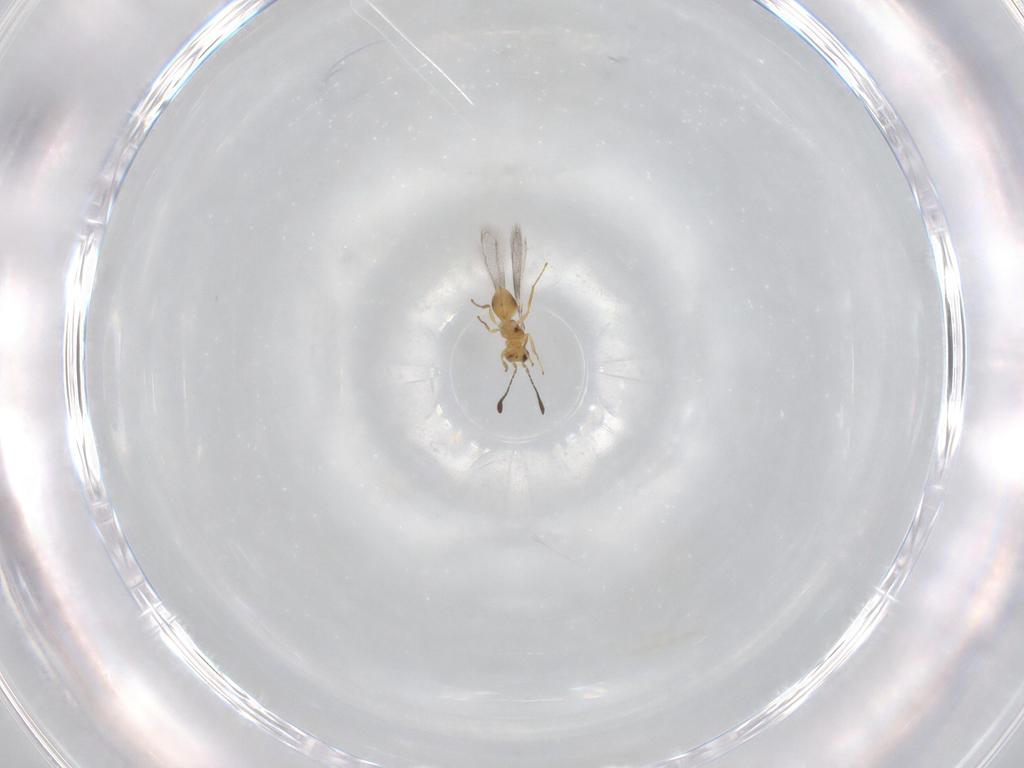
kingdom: Animalia
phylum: Arthropoda
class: Insecta
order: Hymenoptera
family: Mymaridae
